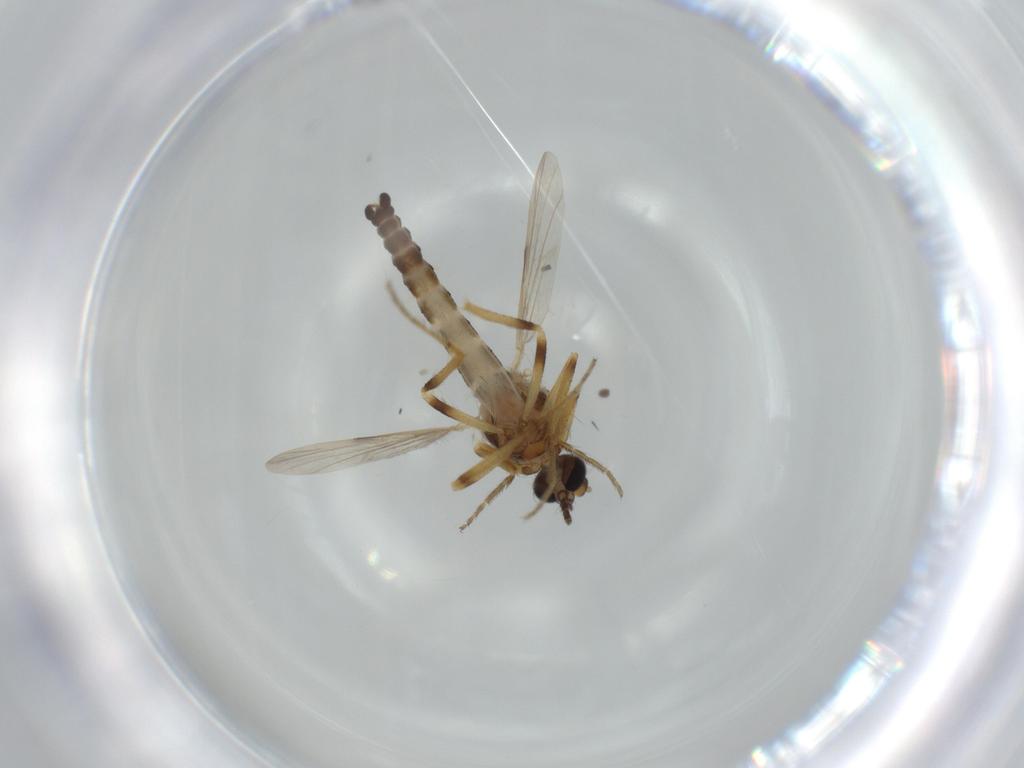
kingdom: Animalia
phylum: Arthropoda
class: Insecta
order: Diptera
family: Ceratopogonidae
